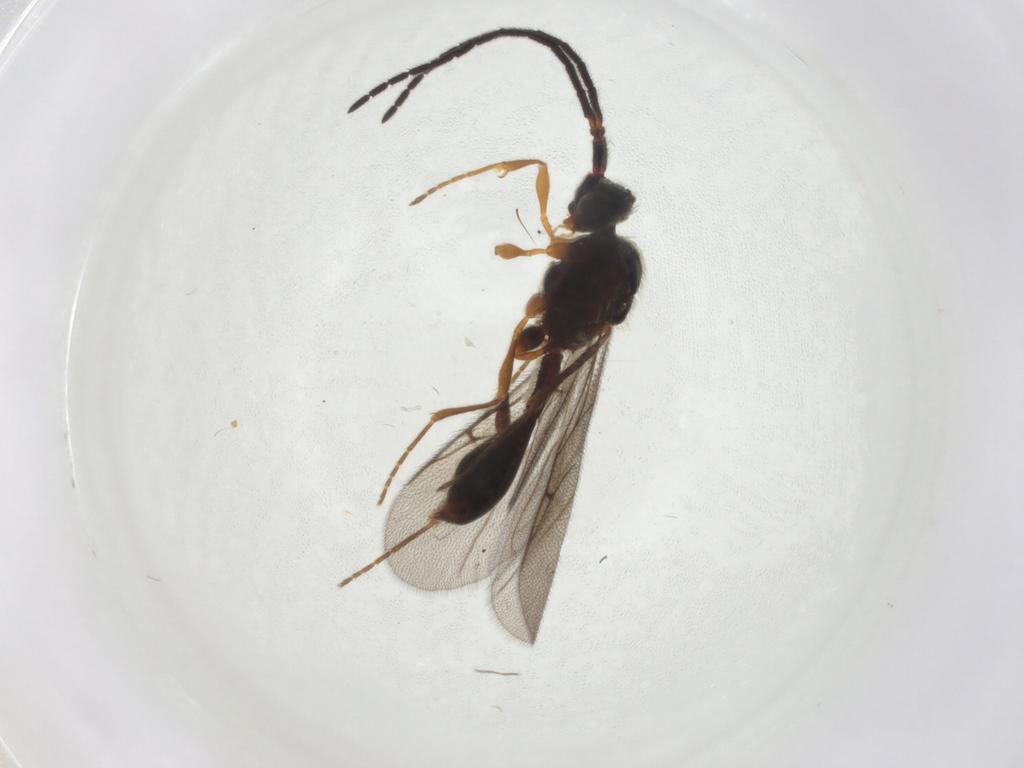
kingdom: Animalia
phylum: Arthropoda
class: Insecta
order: Hymenoptera
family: Diapriidae
